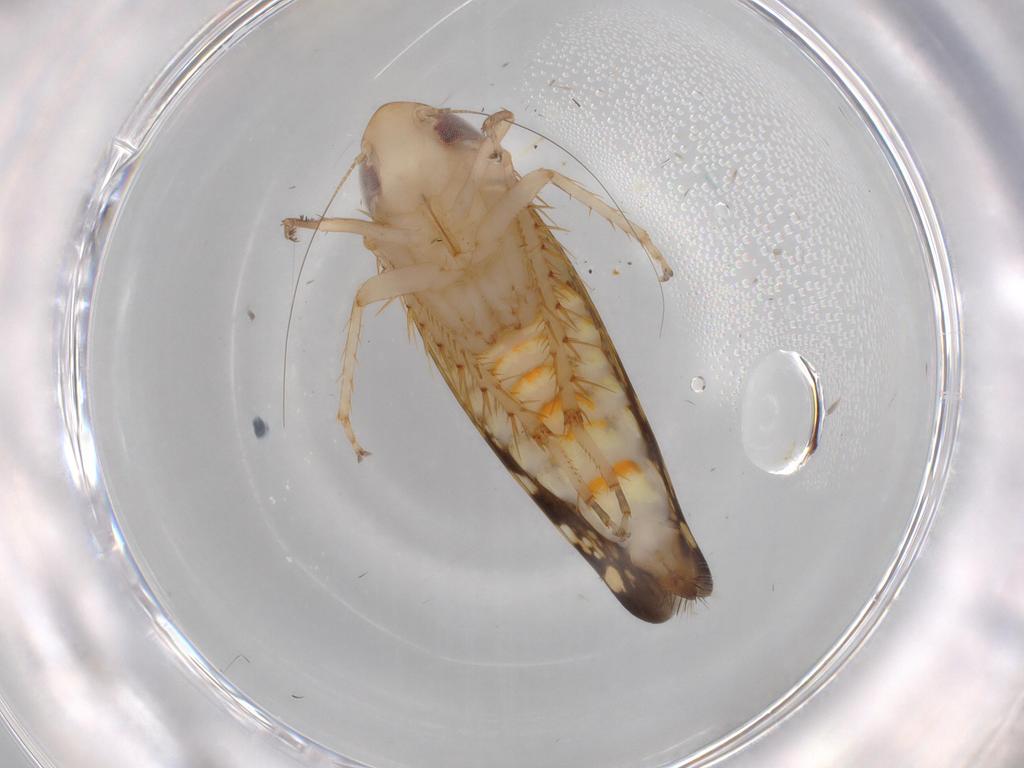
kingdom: Animalia
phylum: Arthropoda
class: Insecta
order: Hemiptera
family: Cicadellidae
